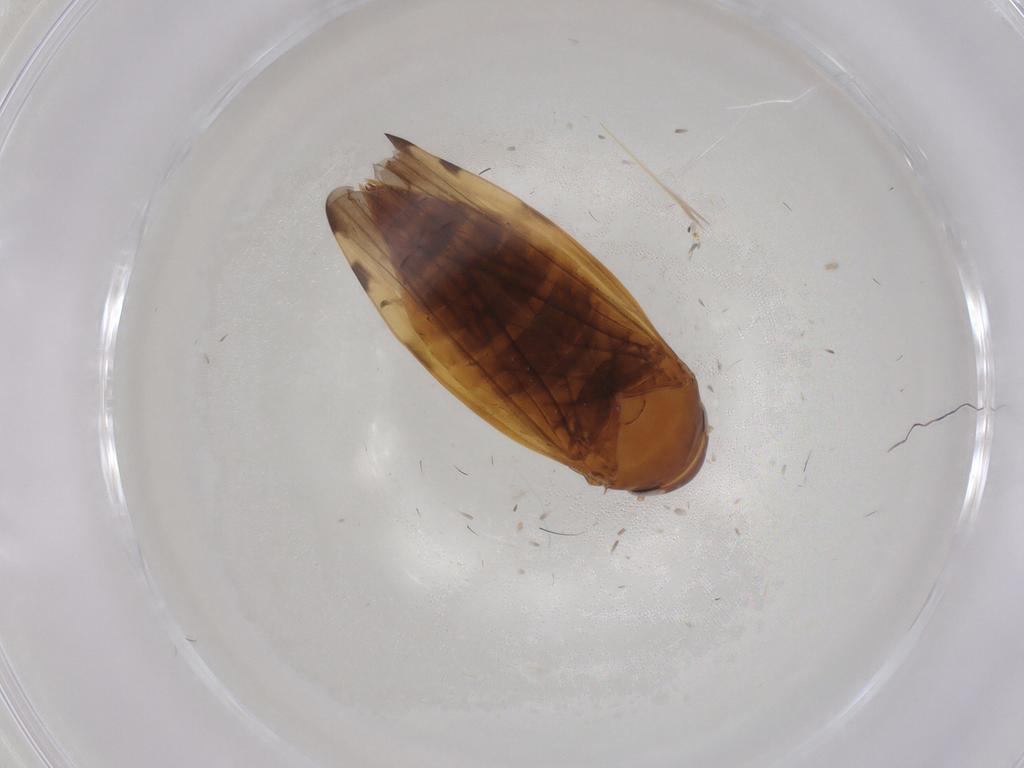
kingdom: Animalia
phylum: Arthropoda
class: Insecta
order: Hemiptera
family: Cicadellidae
